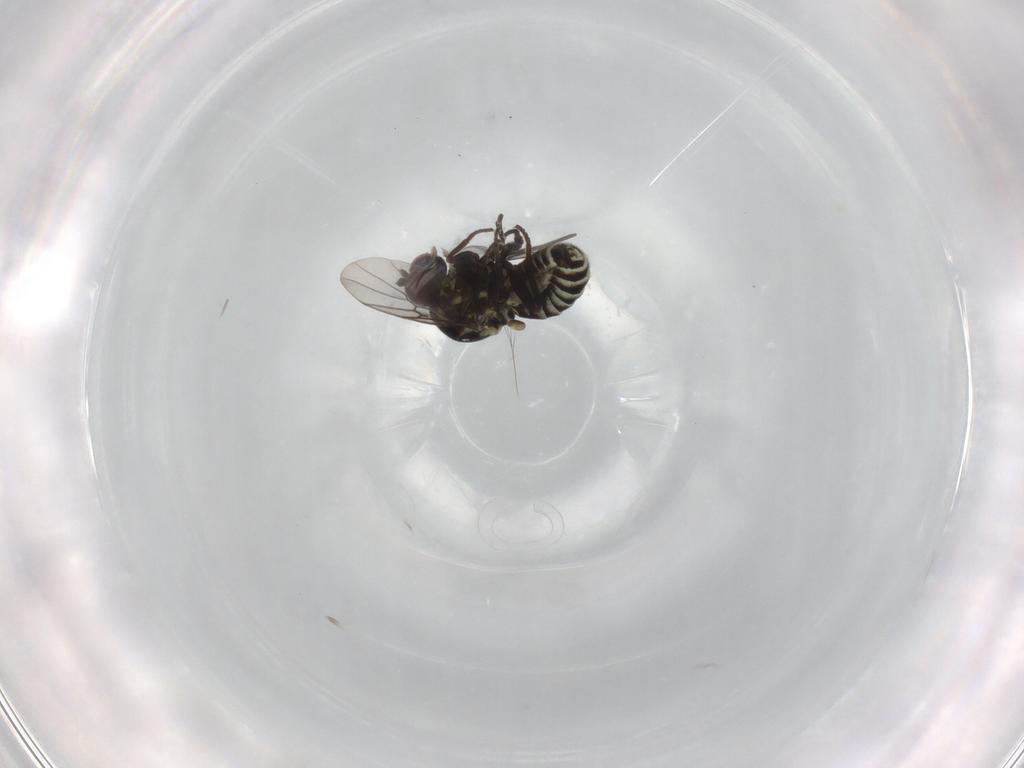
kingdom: Animalia
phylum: Arthropoda
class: Insecta
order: Diptera
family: Mythicomyiidae
